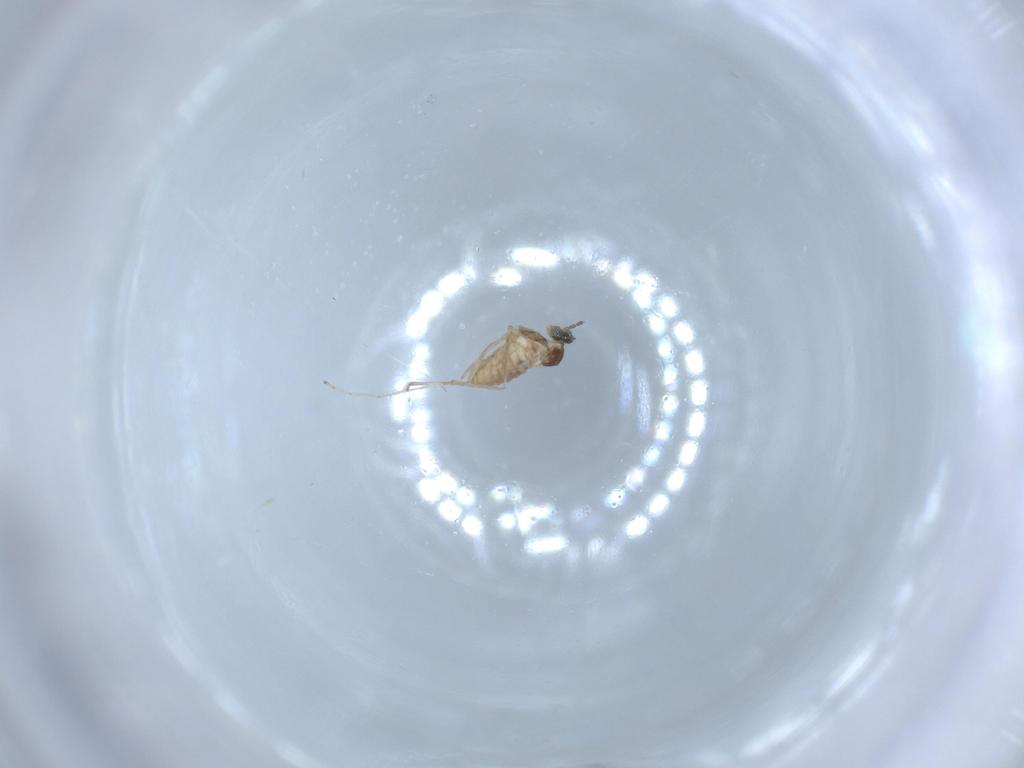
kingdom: Animalia
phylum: Arthropoda
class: Insecta
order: Diptera
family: Cecidomyiidae
